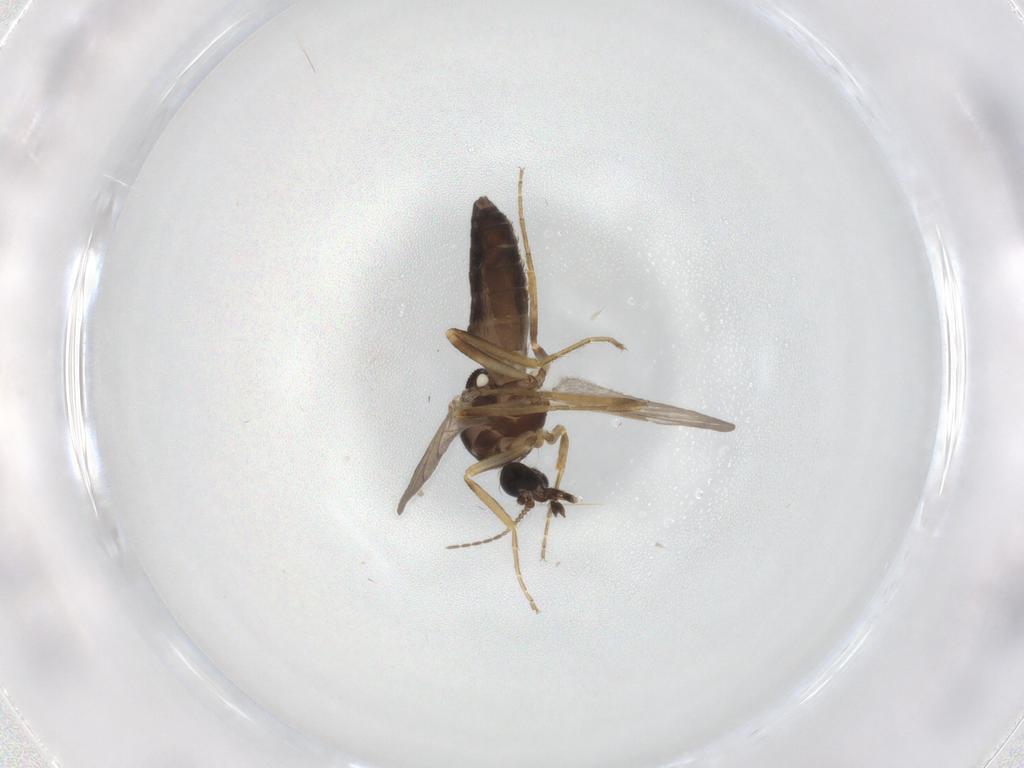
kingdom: Animalia
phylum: Arthropoda
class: Insecta
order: Diptera
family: Ceratopogonidae
